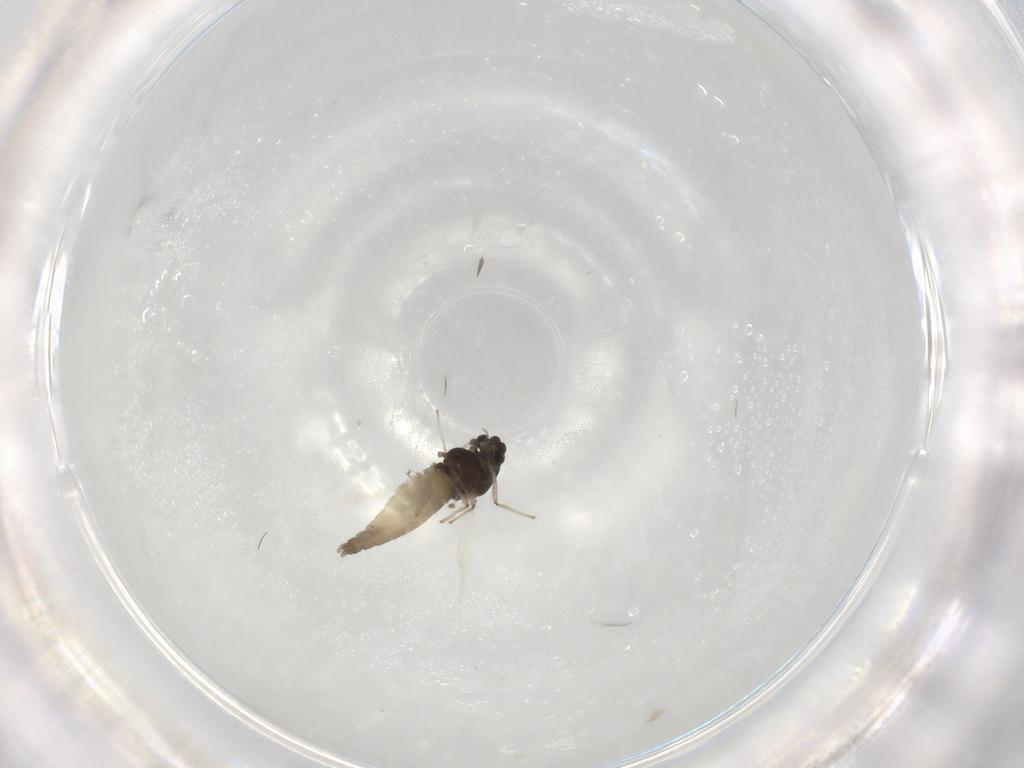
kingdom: Animalia
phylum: Arthropoda
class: Insecta
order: Diptera
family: Chironomidae
